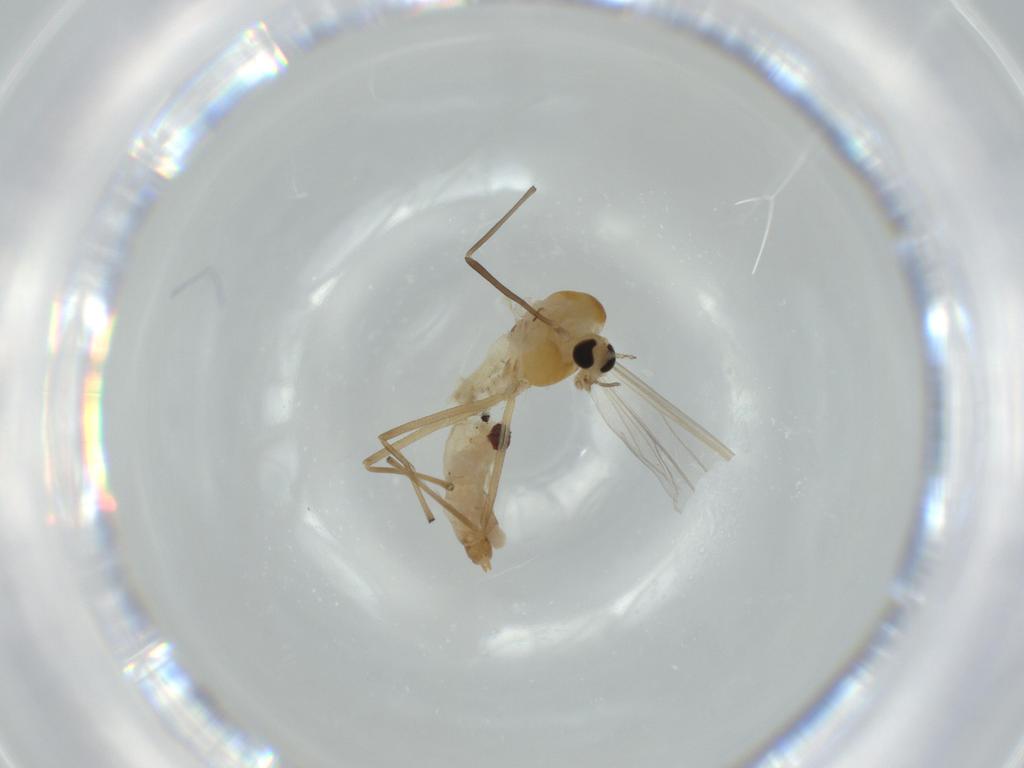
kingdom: Animalia
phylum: Arthropoda
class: Insecta
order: Diptera
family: Chironomidae
